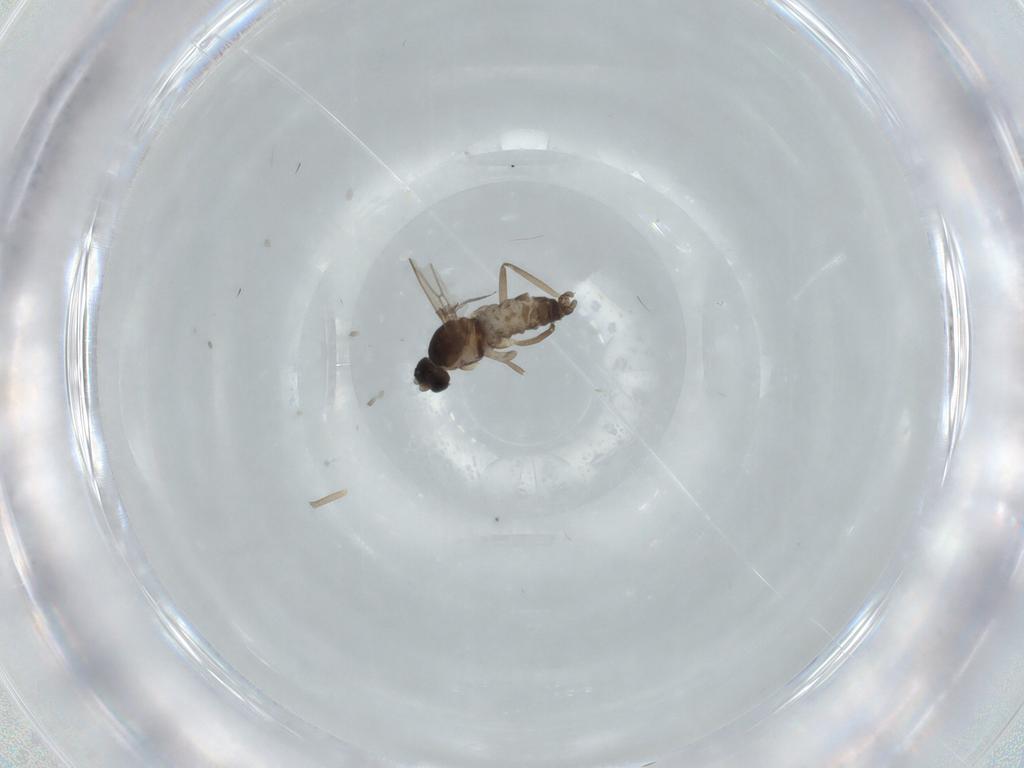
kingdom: Animalia
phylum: Arthropoda
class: Insecta
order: Diptera
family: Cecidomyiidae
